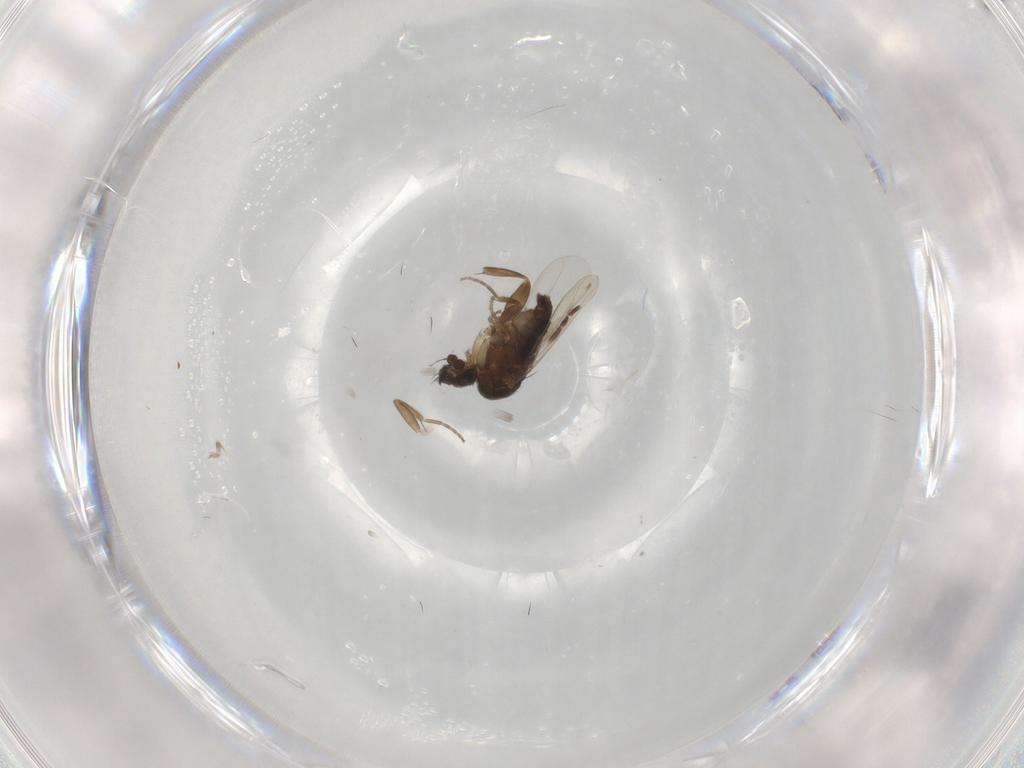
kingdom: Animalia
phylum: Arthropoda
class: Insecta
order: Diptera
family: Phoridae
